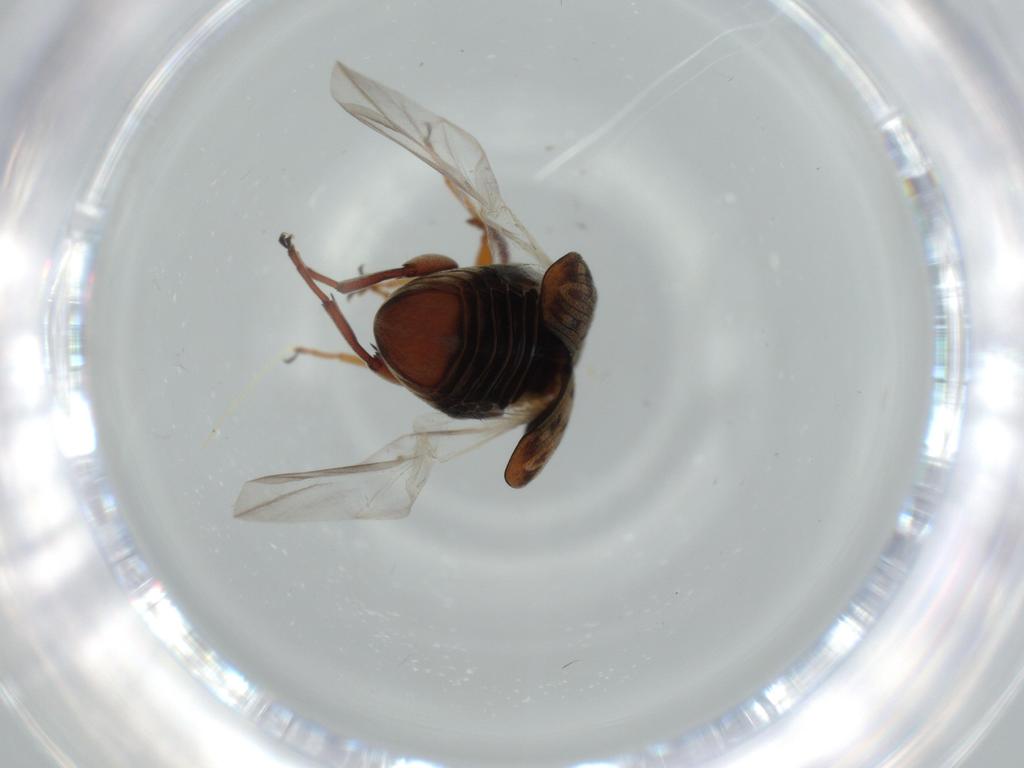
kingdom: Animalia
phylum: Arthropoda
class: Insecta
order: Coleoptera
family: Chrysomelidae
